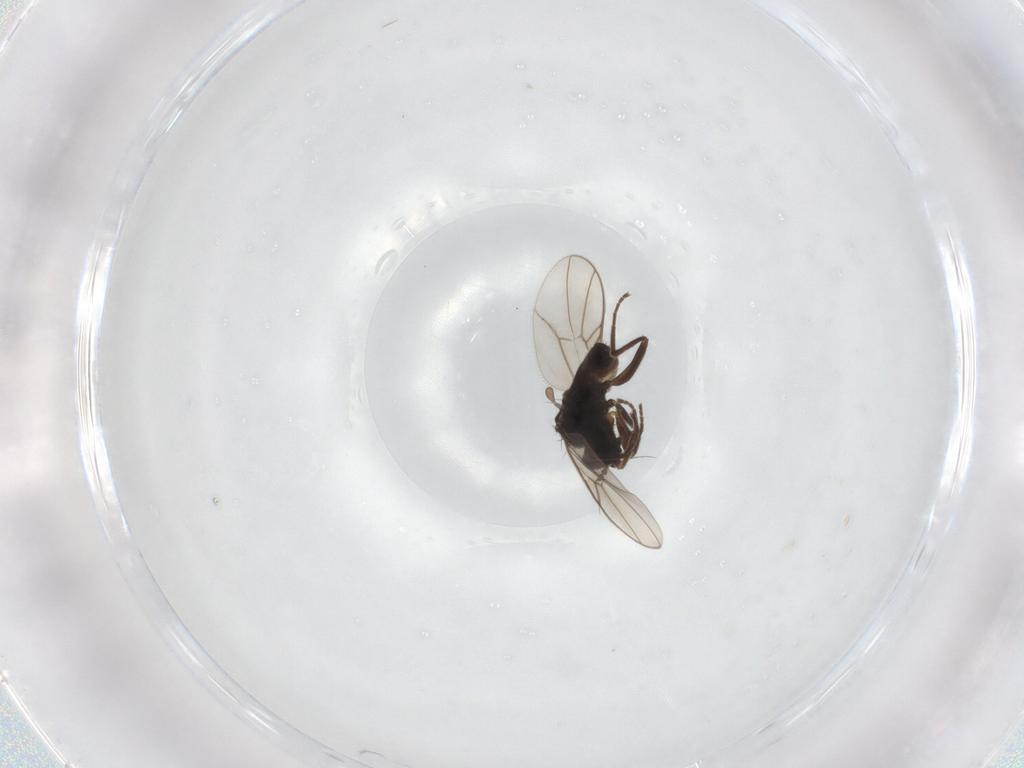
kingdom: Animalia
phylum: Arthropoda
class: Insecta
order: Diptera
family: Hybotidae
